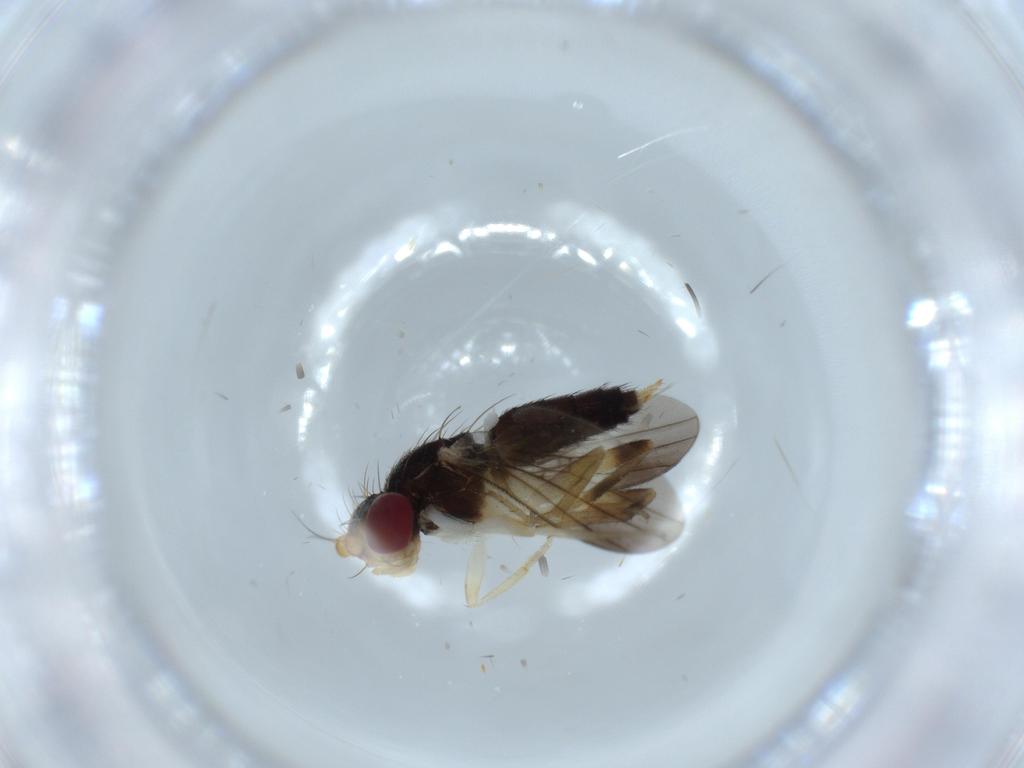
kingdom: Animalia
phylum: Arthropoda
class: Insecta
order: Diptera
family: Clusiidae
